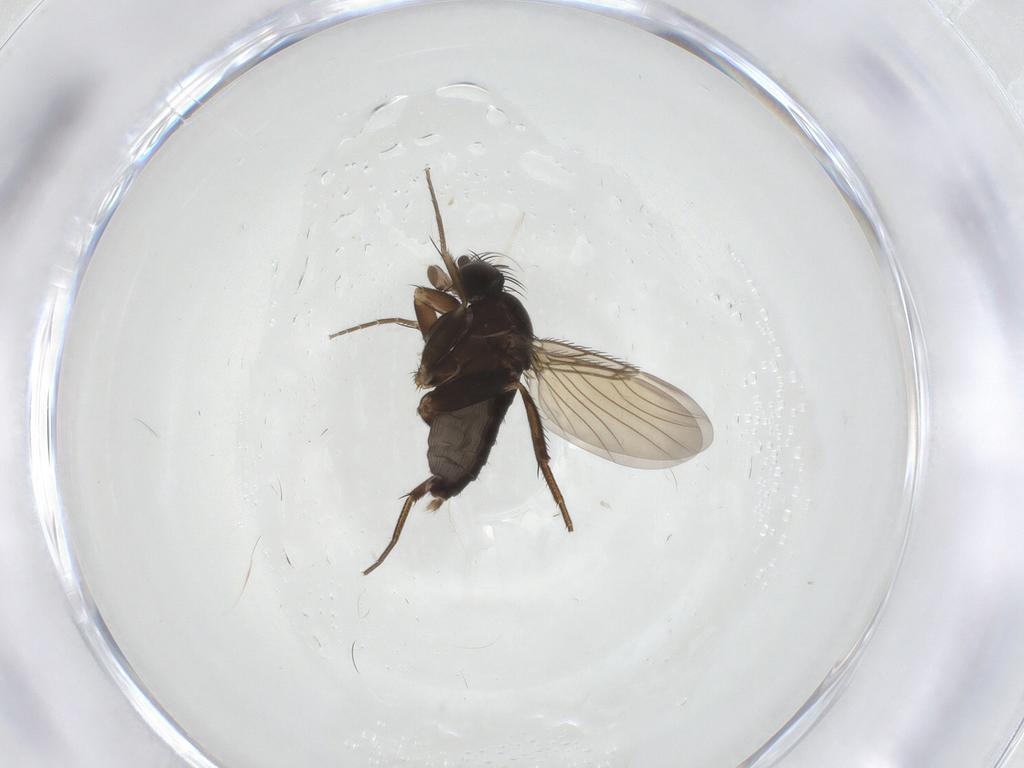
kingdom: Animalia
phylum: Arthropoda
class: Insecta
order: Diptera
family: Phoridae
